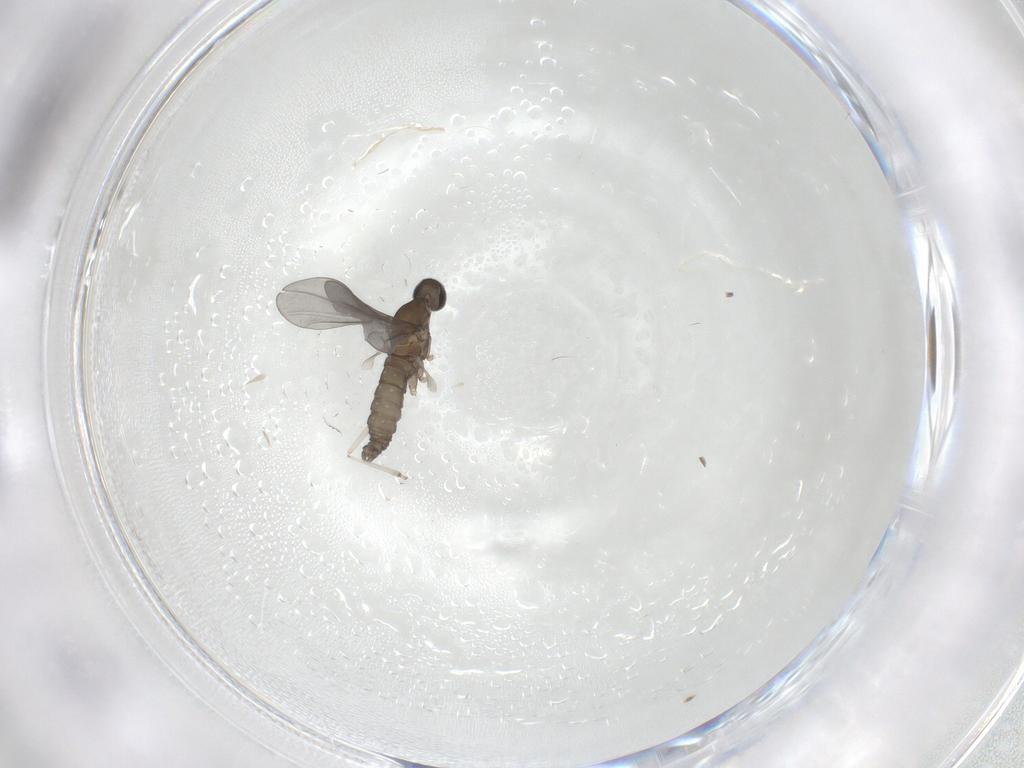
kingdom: Animalia
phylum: Arthropoda
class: Insecta
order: Diptera
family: Cecidomyiidae
